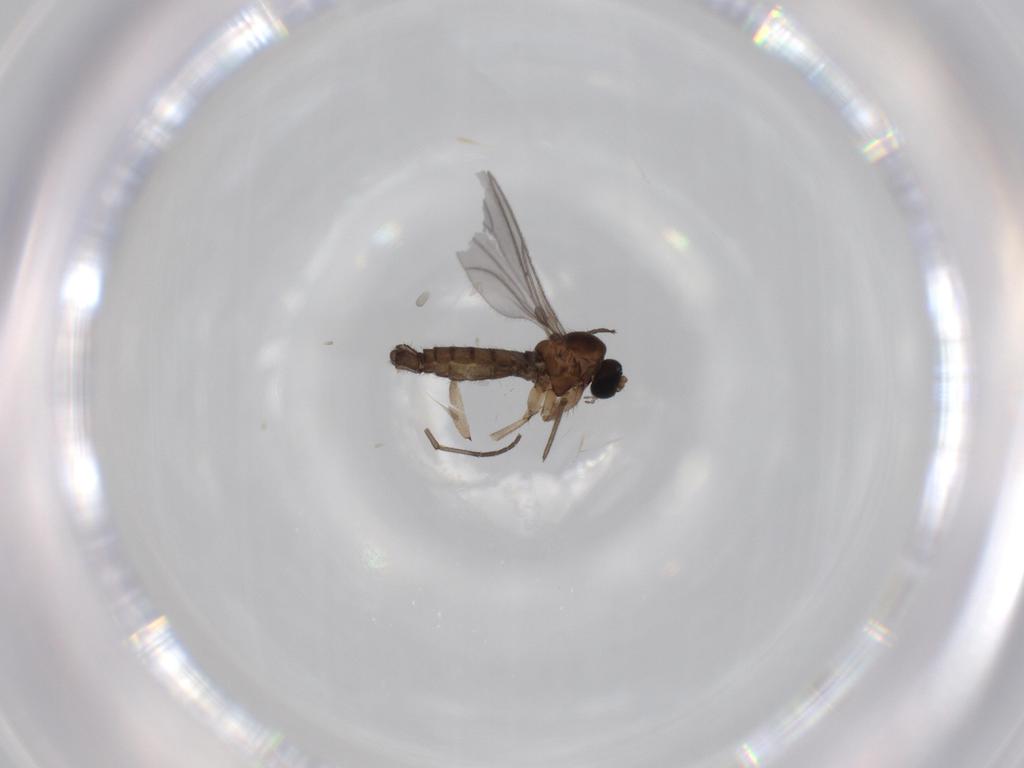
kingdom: Animalia
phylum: Arthropoda
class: Insecta
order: Diptera
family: Sciaridae
